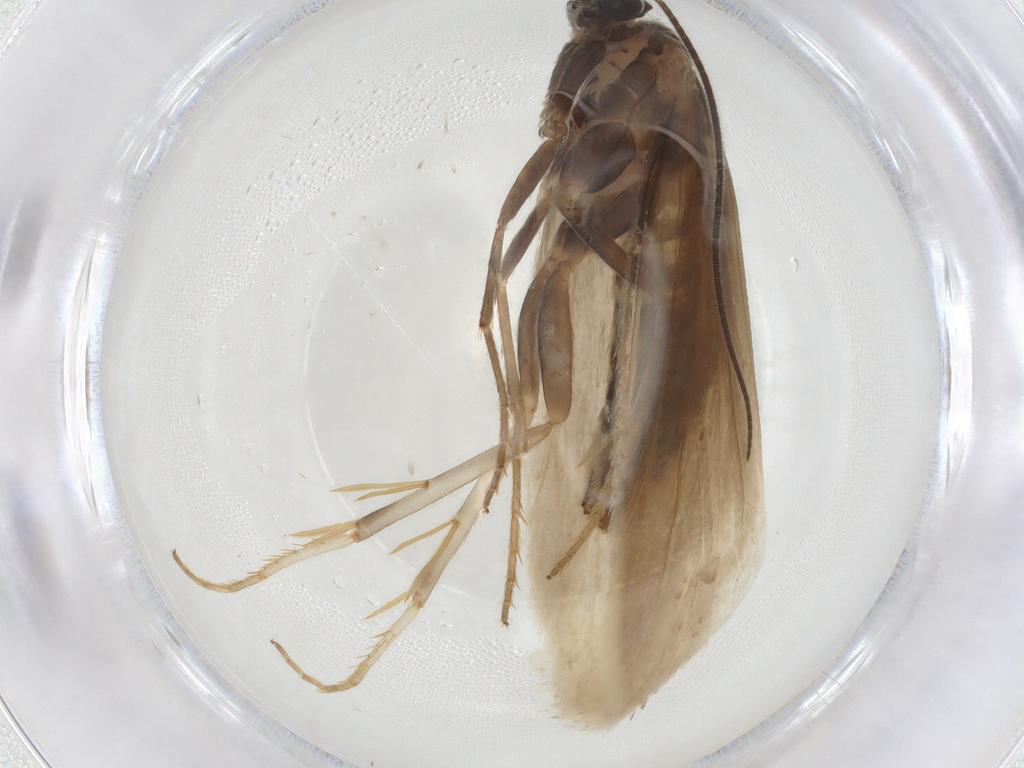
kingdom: Animalia
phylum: Arthropoda
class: Insecta
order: Lepidoptera
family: Tridentaformidae
